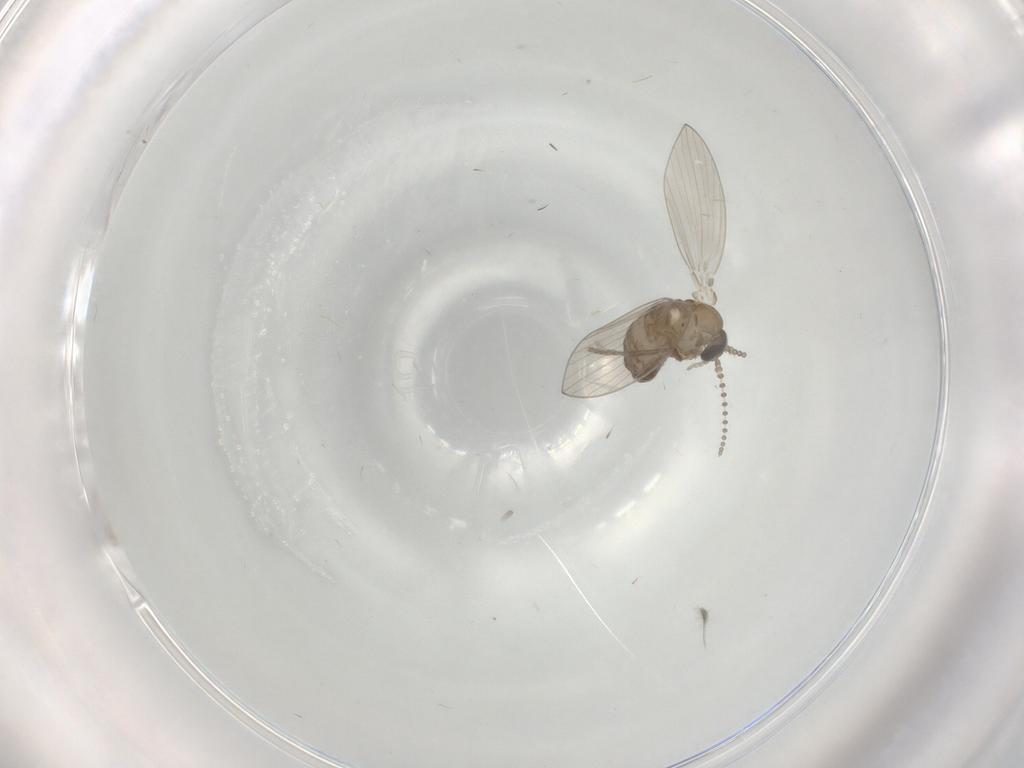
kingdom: Animalia
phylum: Arthropoda
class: Insecta
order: Diptera
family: Psychodidae
